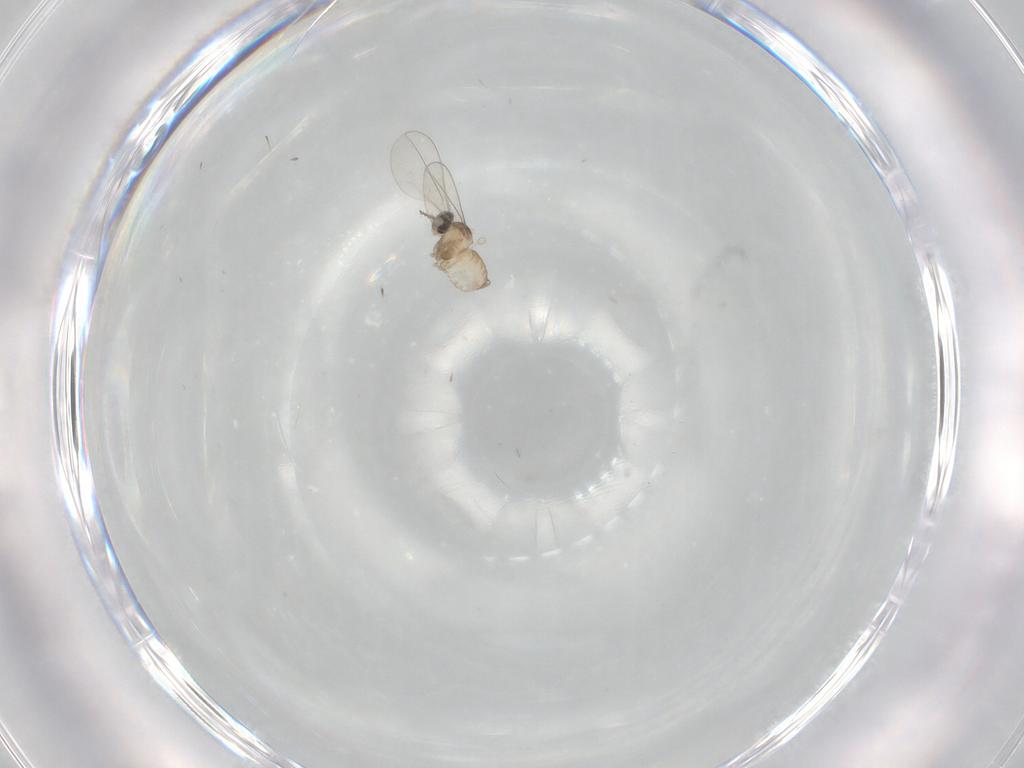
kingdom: Animalia
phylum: Arthropoda
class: Insecta
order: Diptera
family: Cecidomyiidae
